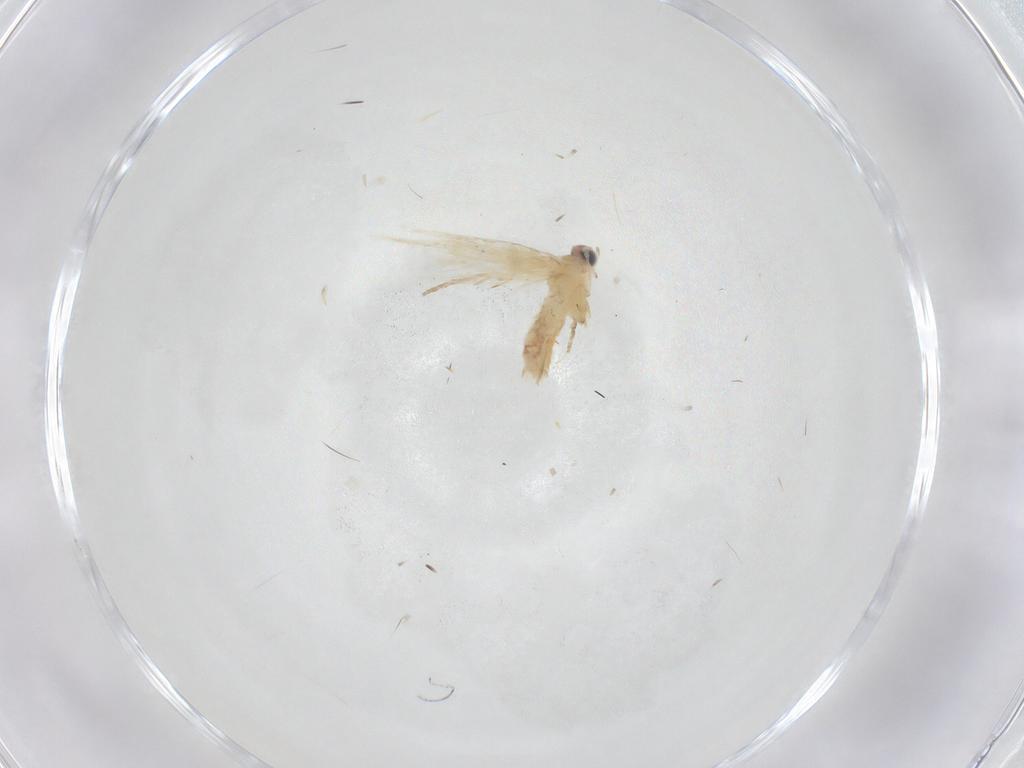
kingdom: Animalia
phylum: Arthropoda
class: Insecta
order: Lepidoptera
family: Nepticulidae
